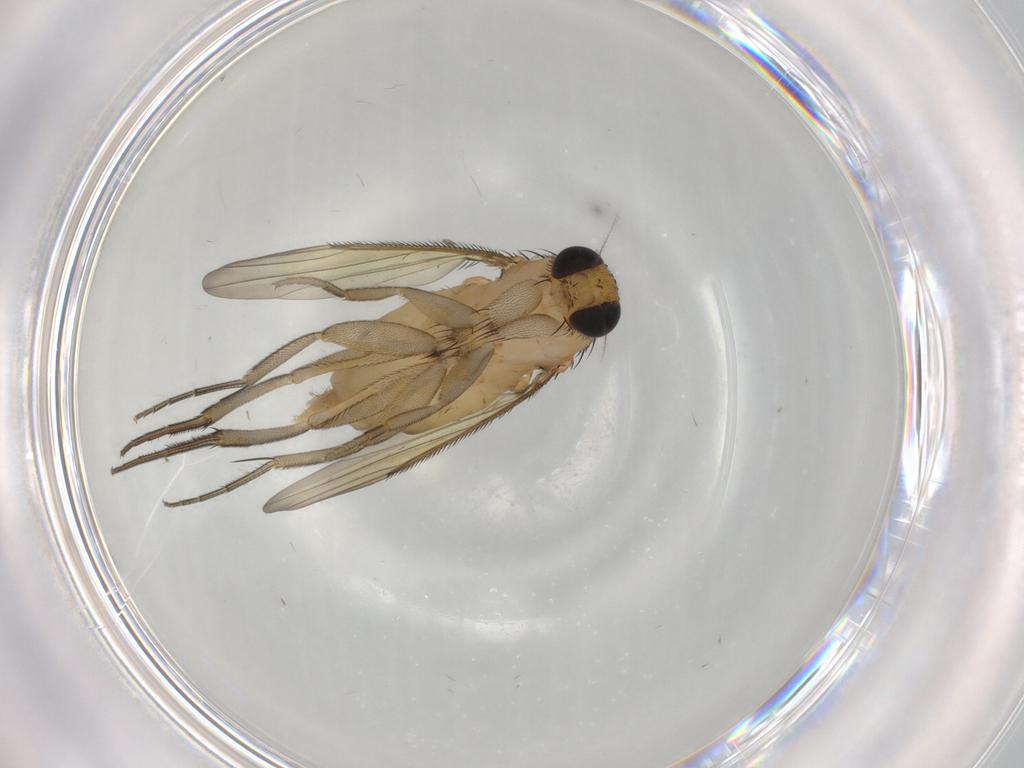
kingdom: Animalia
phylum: Arthropoda
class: Insecta
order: Diptera
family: Phoridae
